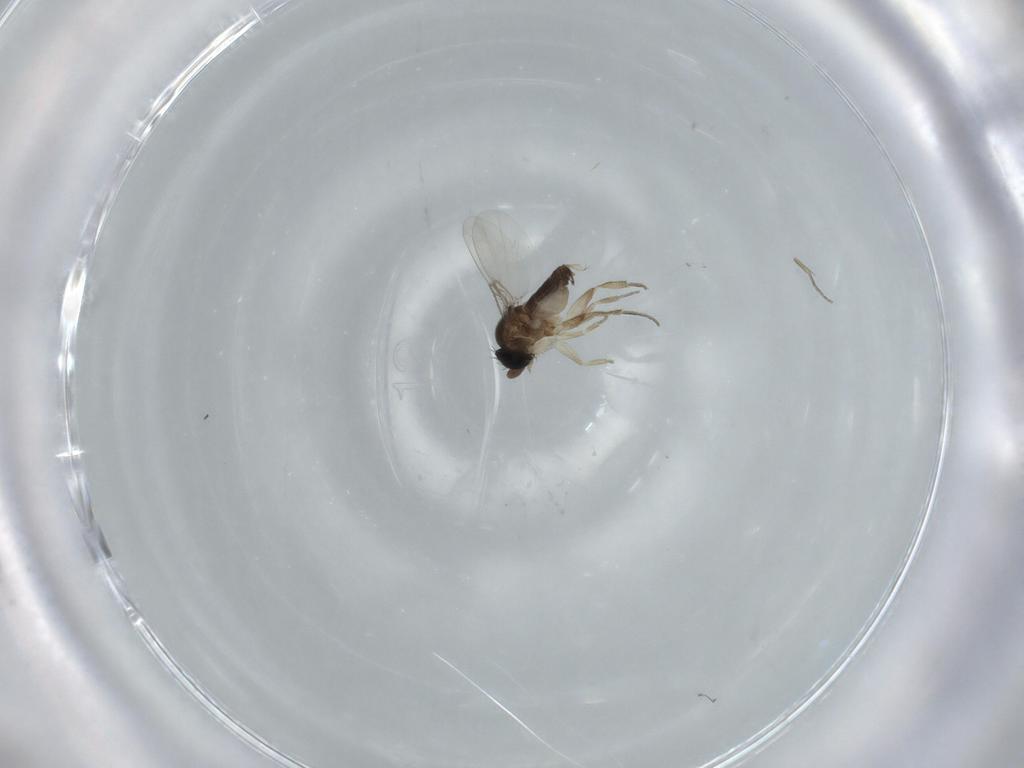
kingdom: Animalia
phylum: Arthropoda
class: Insecta
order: Diptera
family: Phoridae
